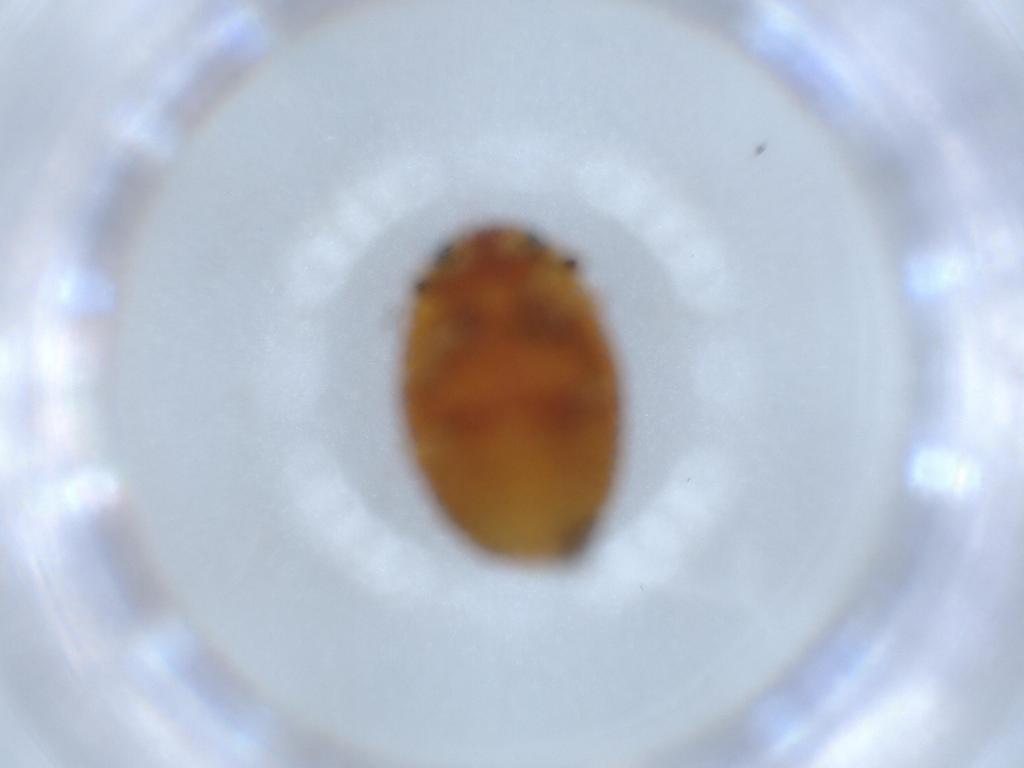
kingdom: Animalia
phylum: Arthropoda
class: Insecta
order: Coleoptera
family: Erotylidae
